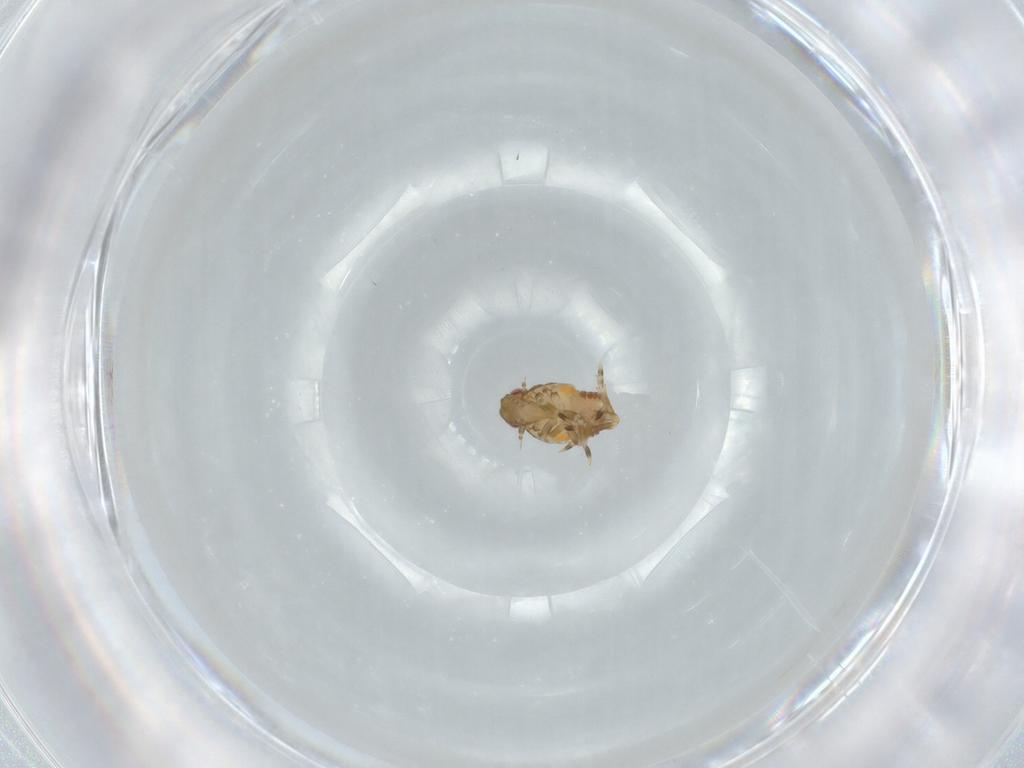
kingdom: Animalia
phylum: Arthropoda
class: Insecta
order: Hemiptera
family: Flatidae
